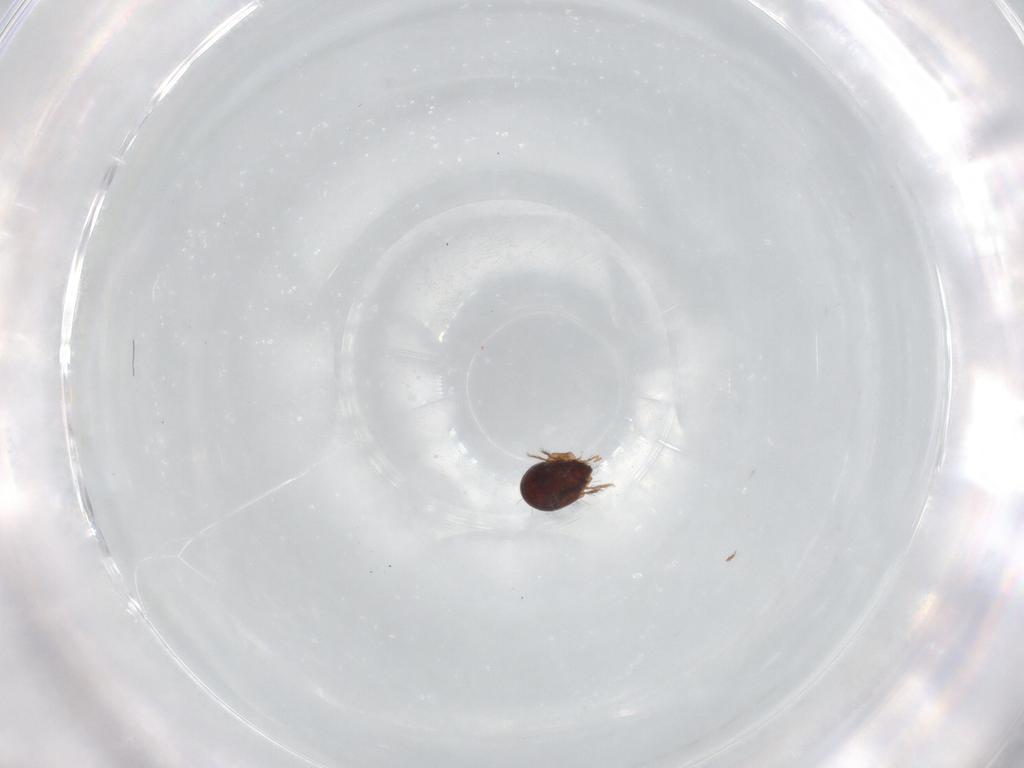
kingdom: Animalia
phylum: Arthropoda
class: Arachnida
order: Sarcoptiformes
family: Humerobatidae
